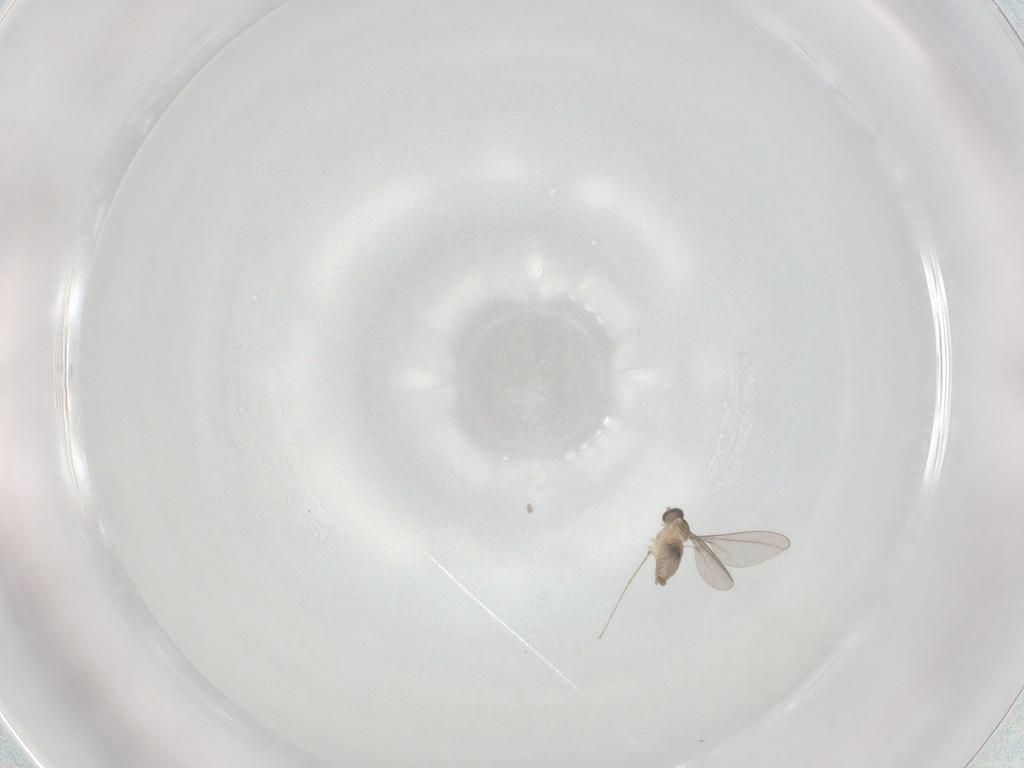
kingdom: Animalia
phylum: Arthropoda
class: Insecta
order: Diptera
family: Cecidomyiidae
